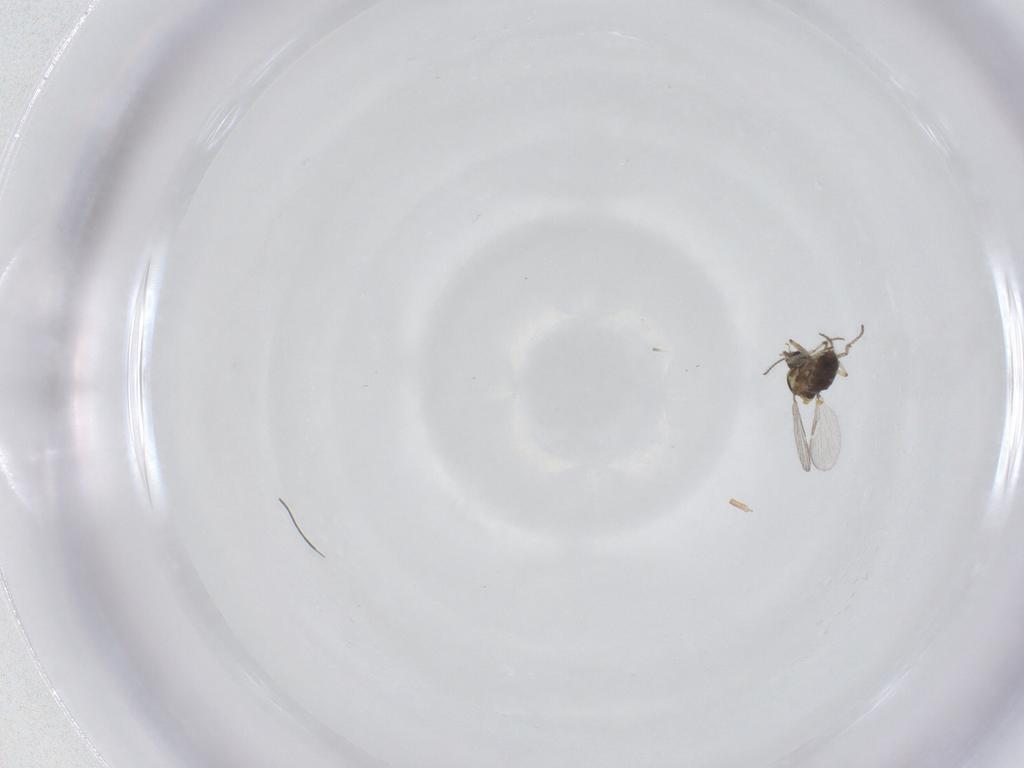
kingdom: Animalia
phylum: Arthropoda
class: Insecta
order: Diptera
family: Ceratopogonidae
